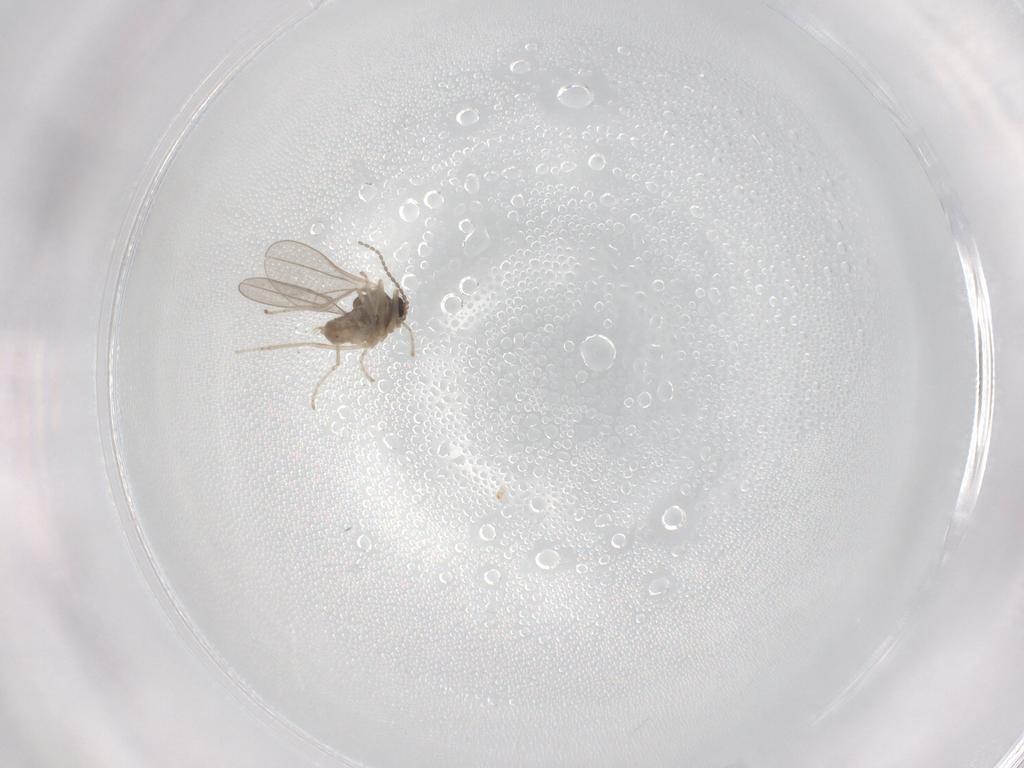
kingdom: Animalia
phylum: Arthropoda
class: Insecta
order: Diptera
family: Cecidomyiidae
